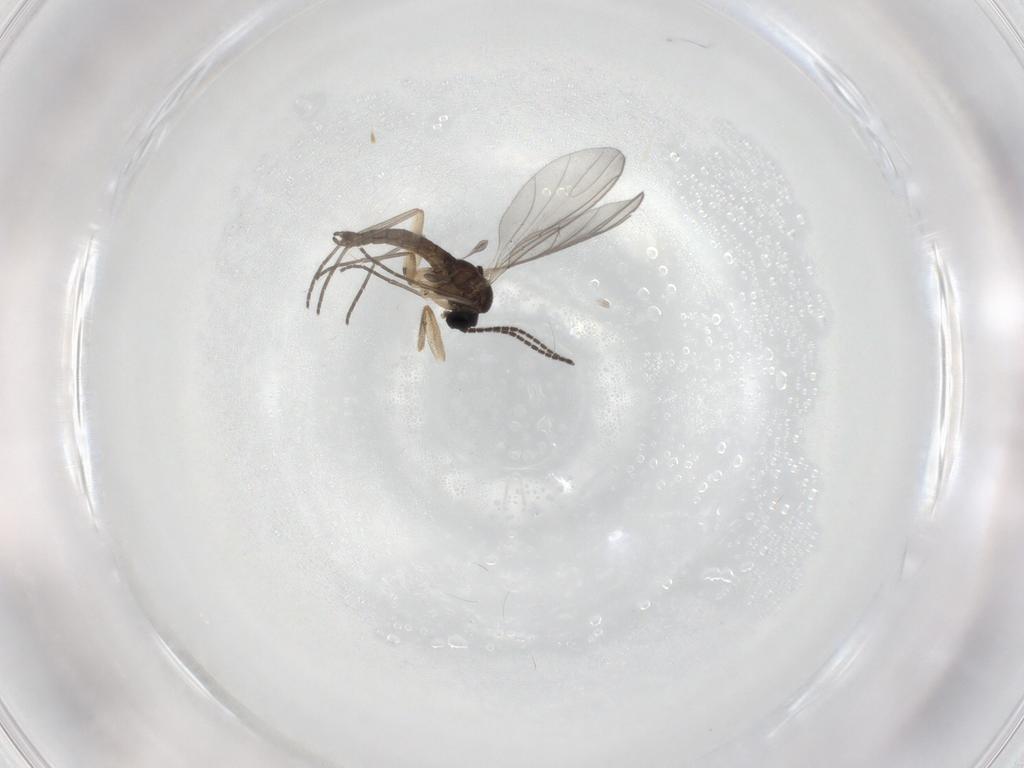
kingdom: Animalia
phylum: Arthropoda
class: Insecta
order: Diptera
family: Sciaridae
